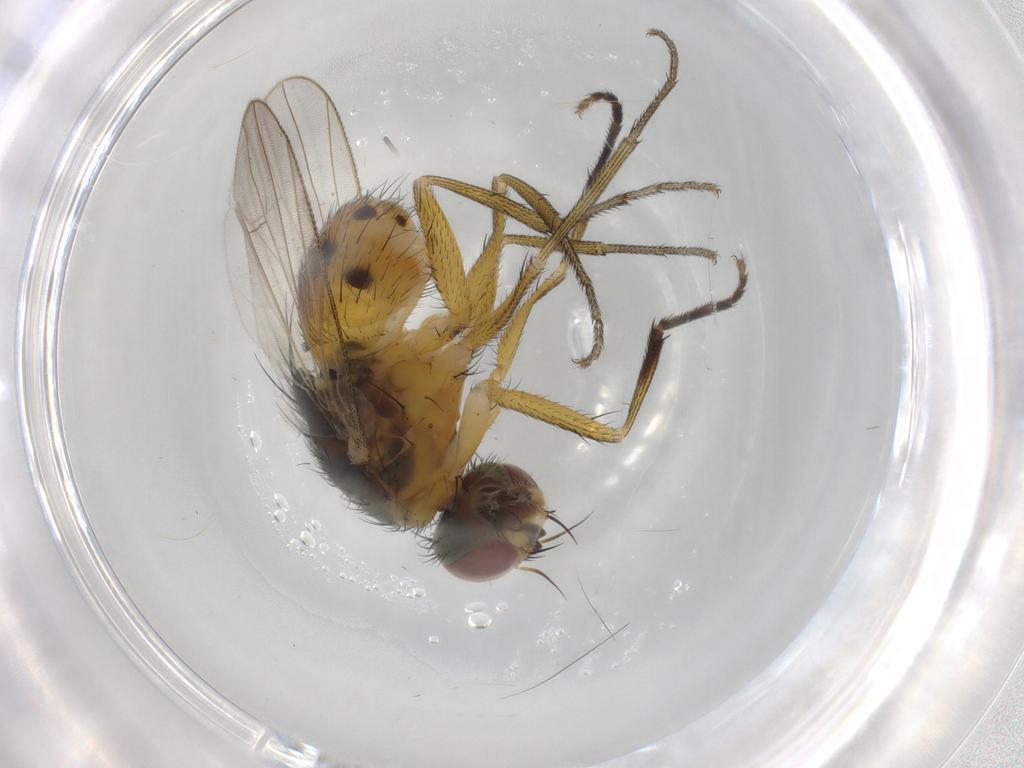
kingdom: Animalia
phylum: Arthropoda
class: Insecta
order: Diptera
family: Muscidae
